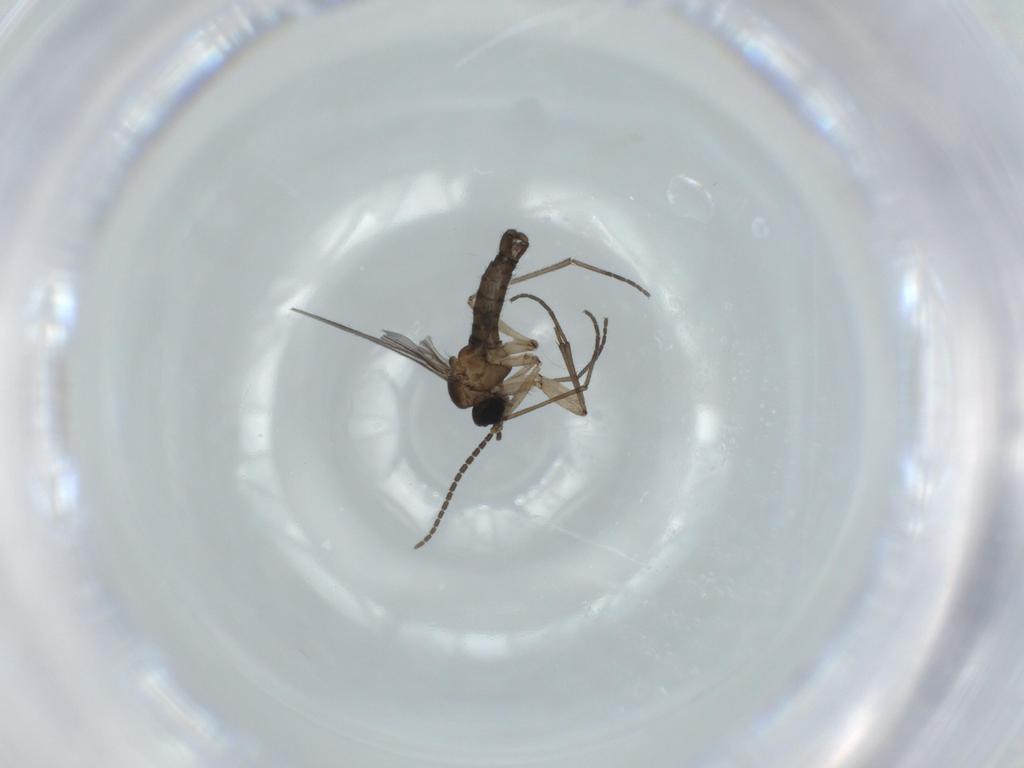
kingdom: Animalia
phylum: Arthropoda
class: Insecta
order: Diptera
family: Sciaridae
